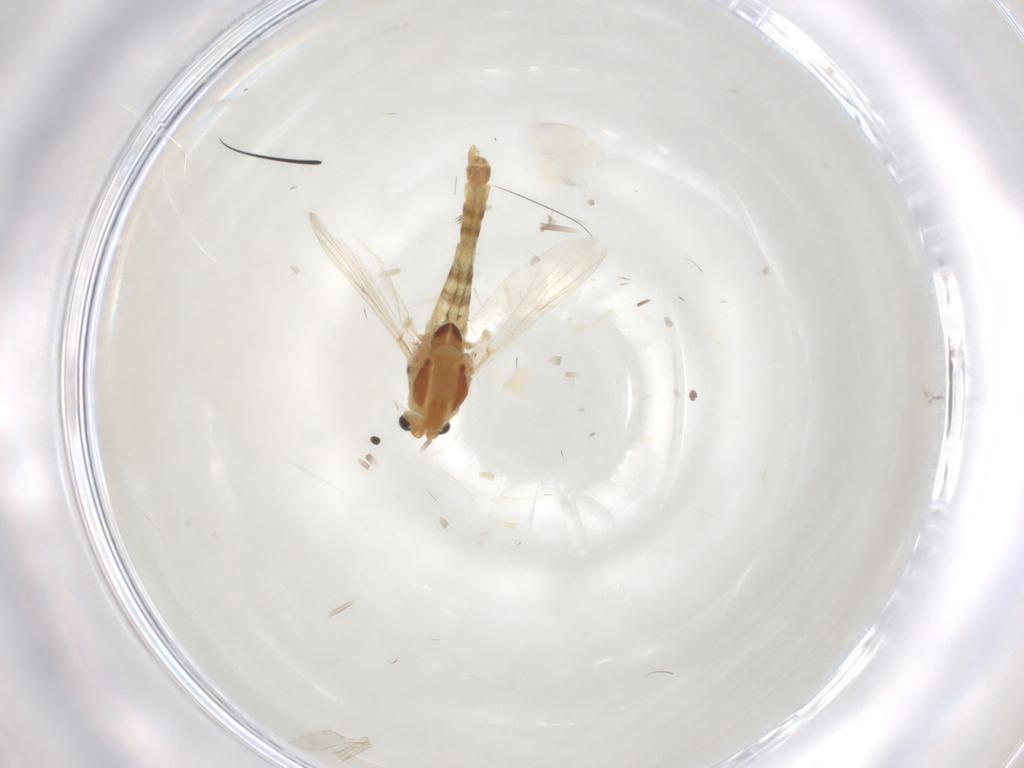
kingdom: Animalia
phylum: Arthropoda
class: Insecta
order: Diptera
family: Chironomidae
